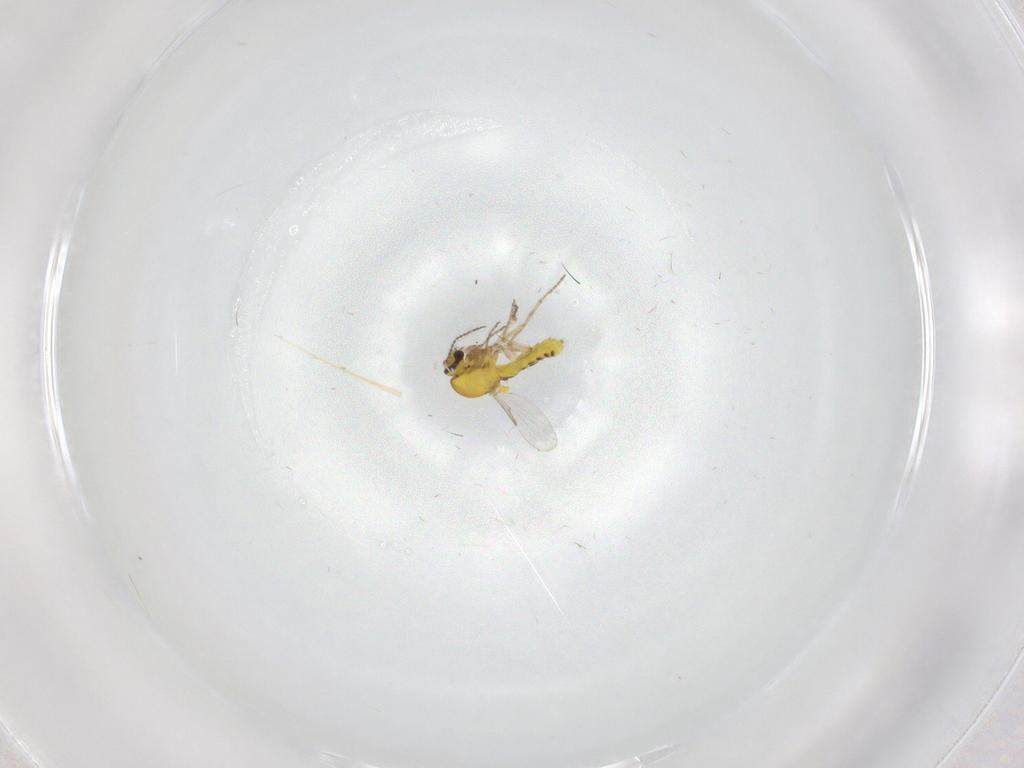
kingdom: Animalia
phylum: Arthropoda
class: Insecta
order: Diptera
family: Ceratopogonidae
